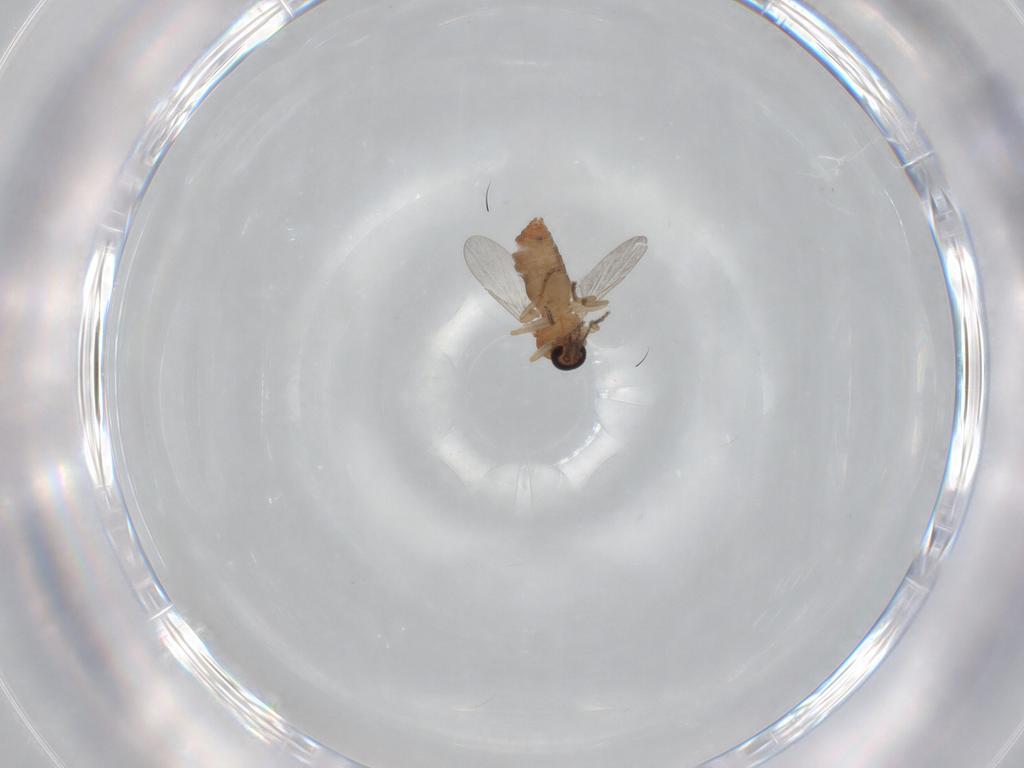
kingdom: Animalia
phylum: Arthropoda
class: Insecta
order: Diptera
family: Ceratopogonidae
